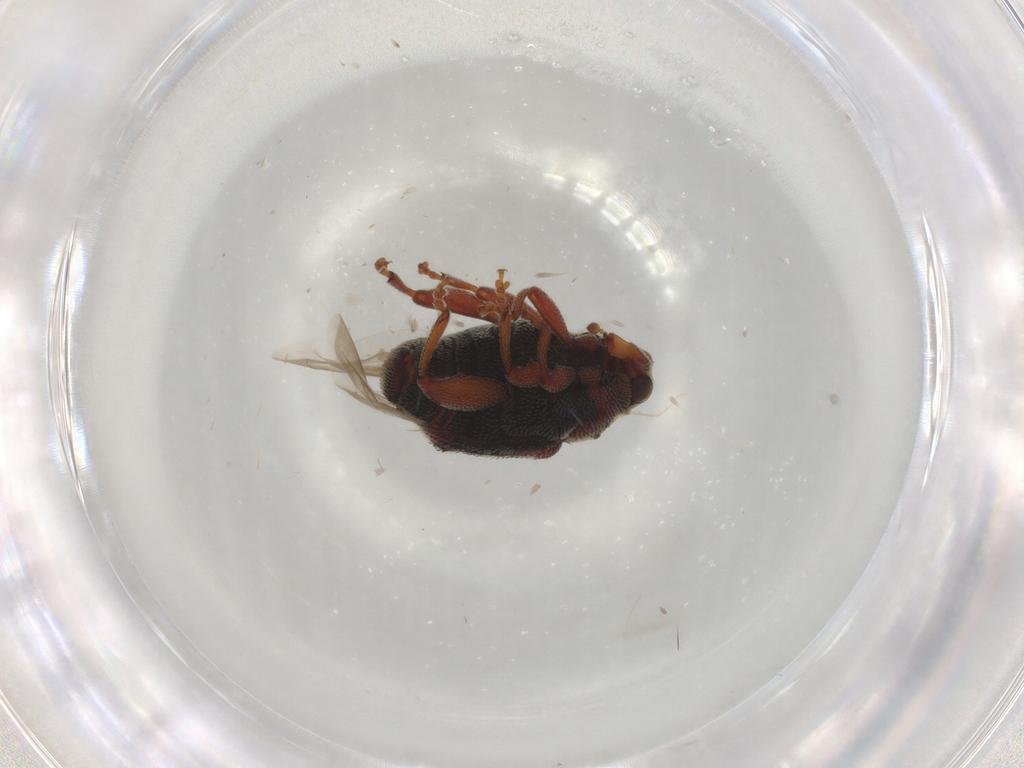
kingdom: Animalia
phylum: Arthropoda
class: Insecta
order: Coleoptera
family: Curculionidae
